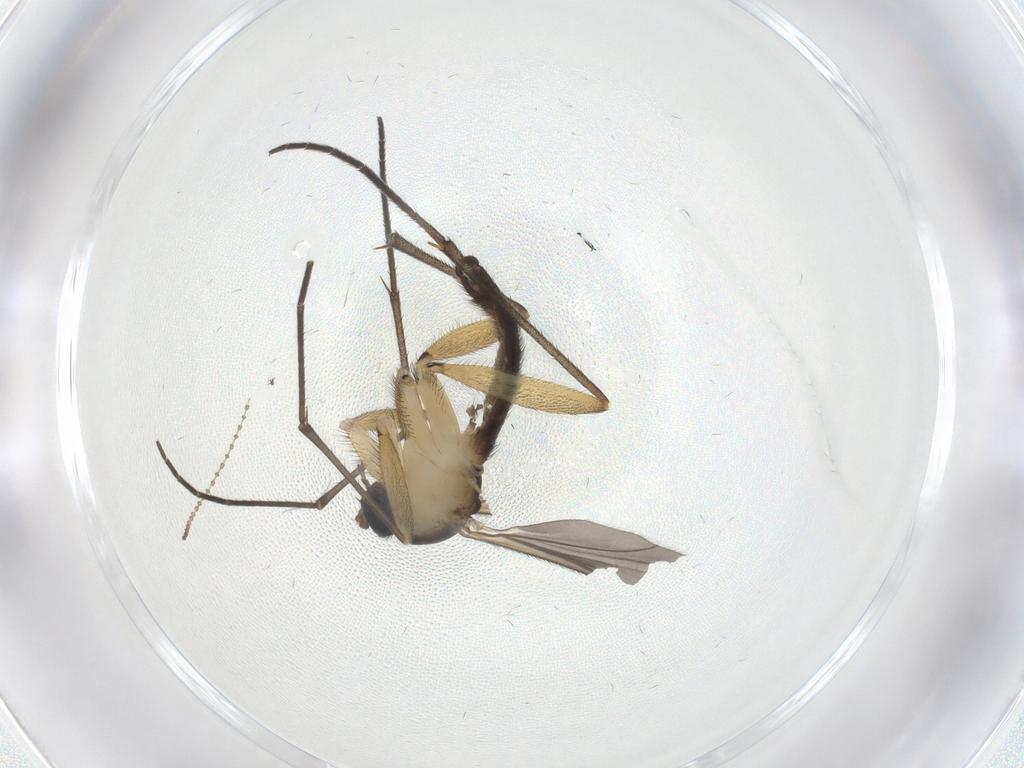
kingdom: Animalia
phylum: Arthropoda
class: Insecta
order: Diptera
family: Sciaridae
